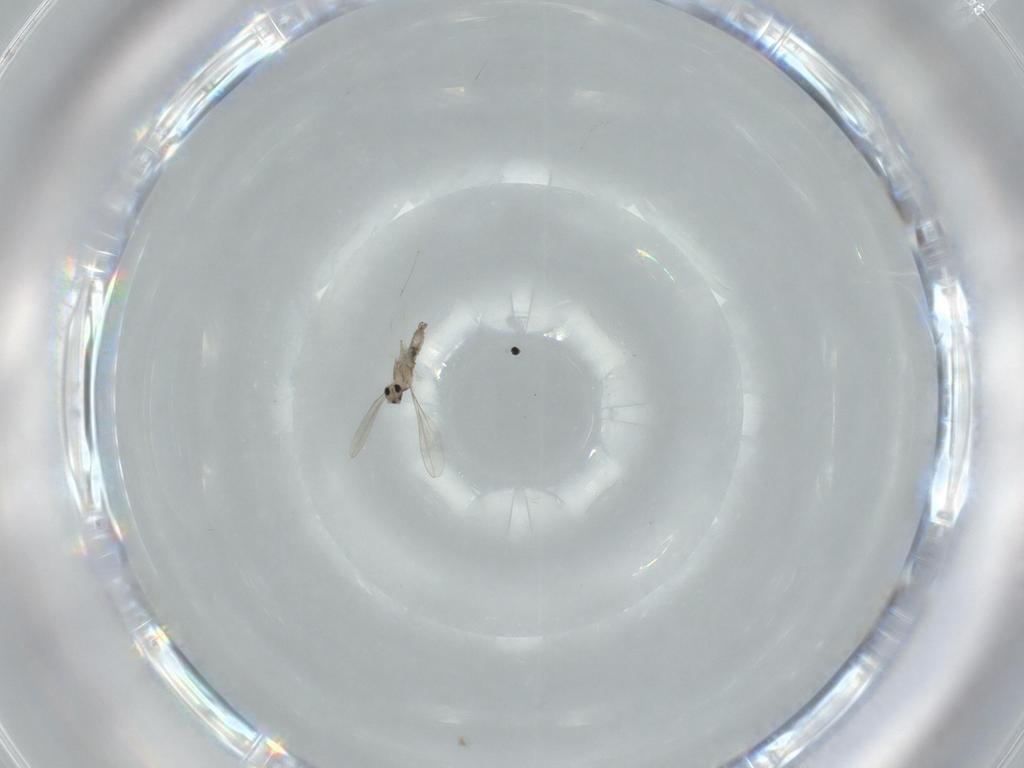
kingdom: Animalia
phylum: Arthropoda
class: Insecta
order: Diptera
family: Cecidomyiidae
